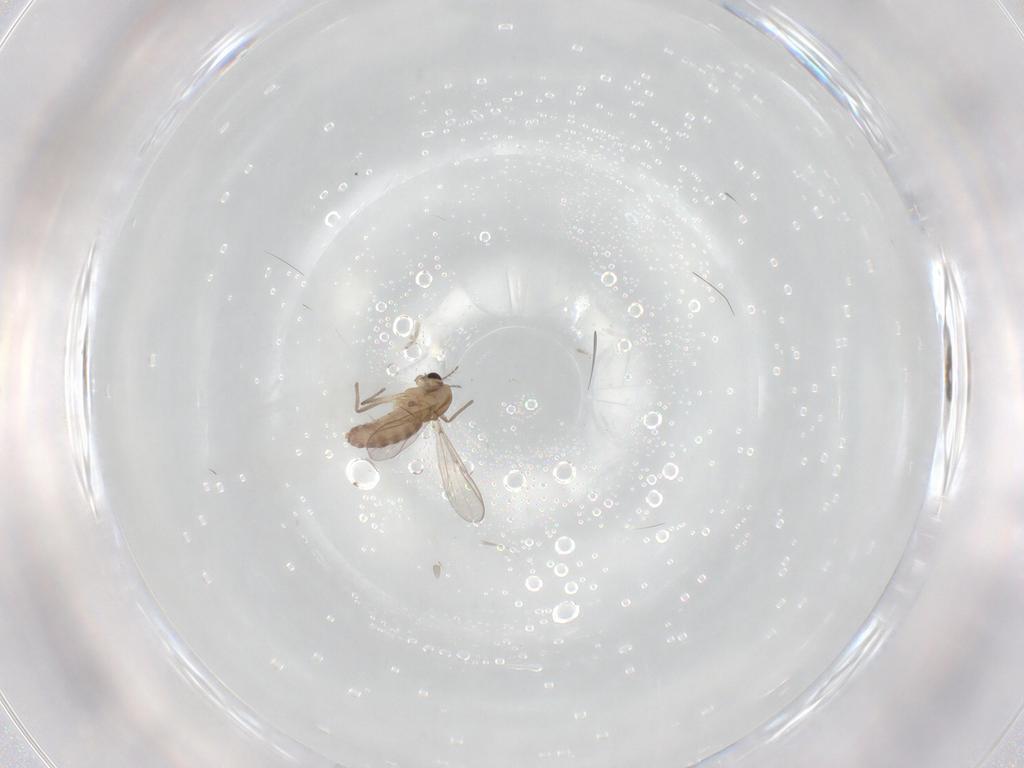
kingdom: Animalia
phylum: Arthropoda
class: Insecta
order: Diptera
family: Chironomidae
